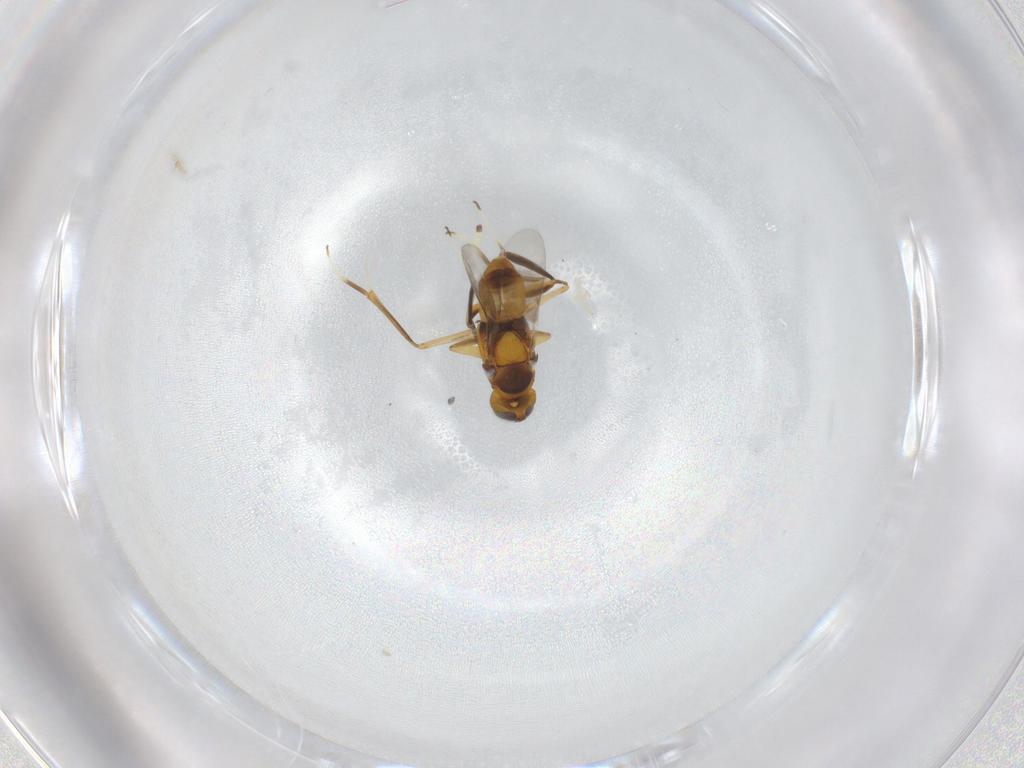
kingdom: Animalia
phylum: Arthropoda
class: Insecta
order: Diptera
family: Psychodidae
